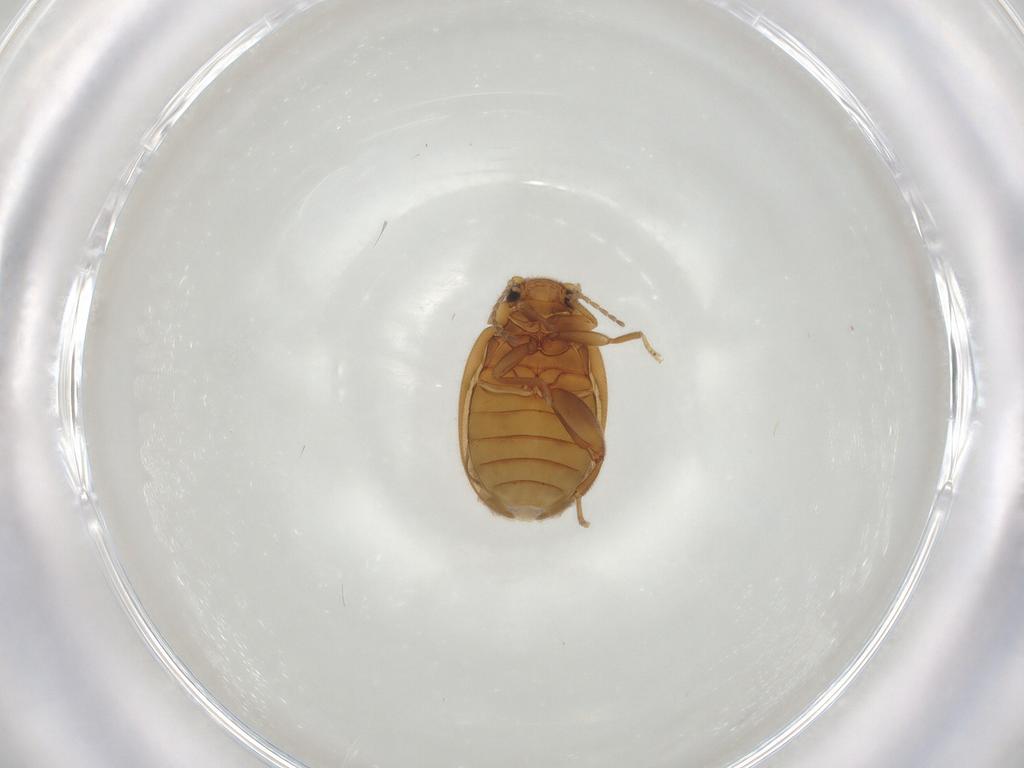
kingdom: Animalia
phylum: Arthropoda
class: Insecta
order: Coleoptera
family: Scirtidae
